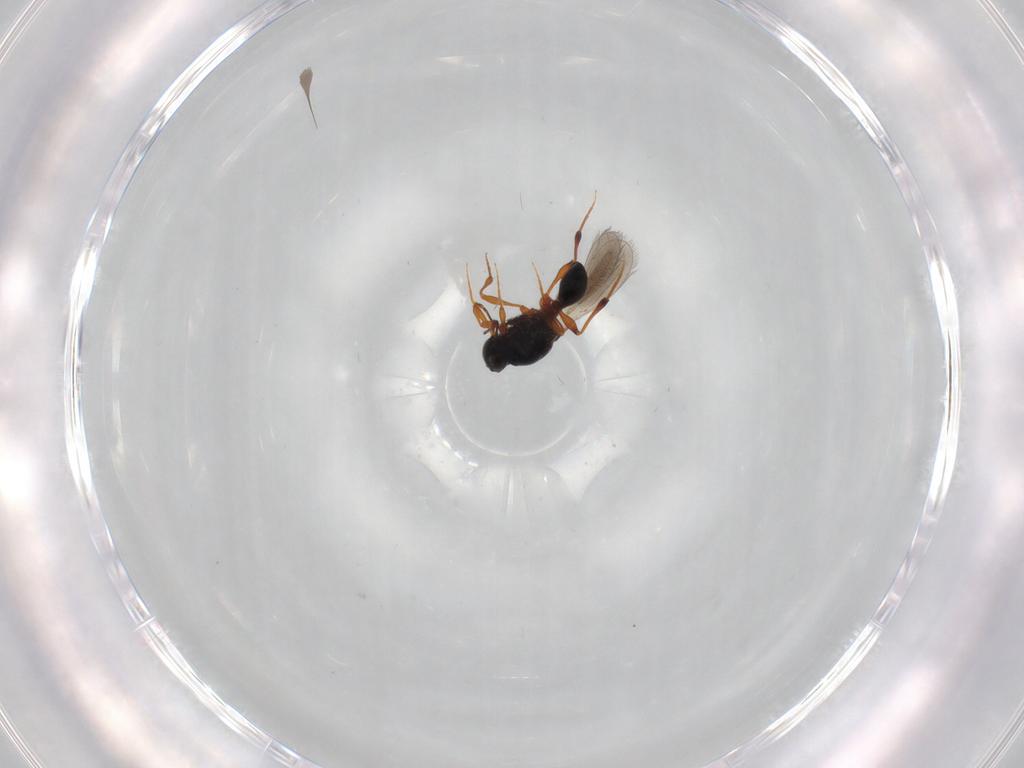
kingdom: Animalia
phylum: Arthropoda
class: Insecta
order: Hymenoptera
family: Platygastridae
